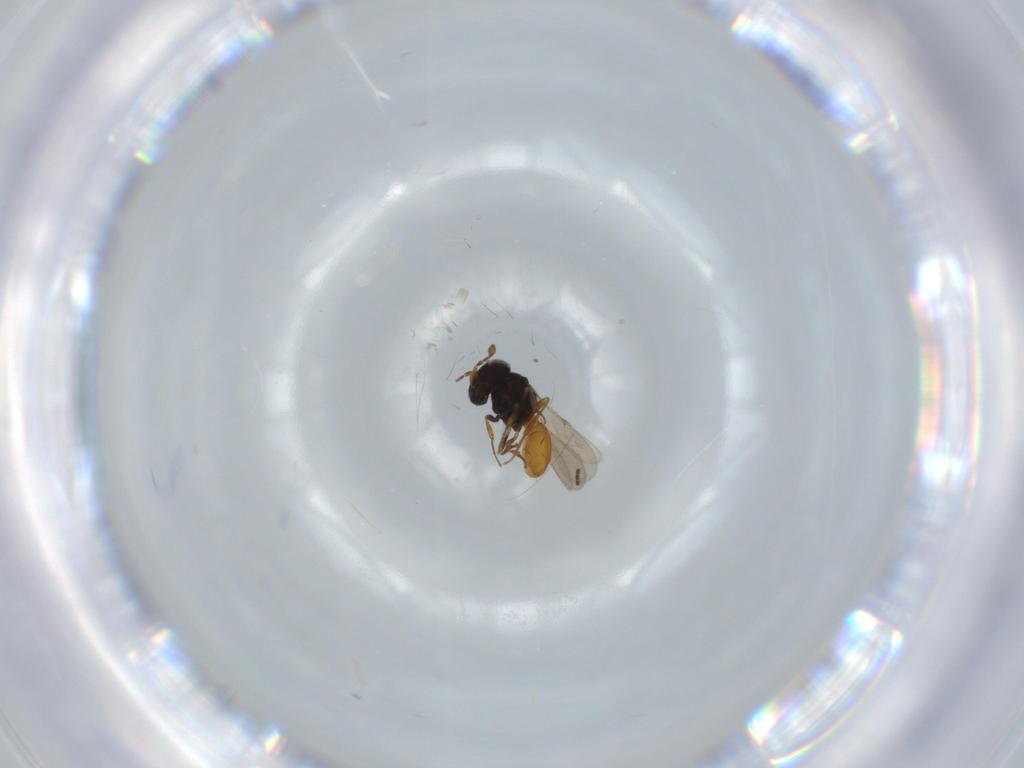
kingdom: Animalia
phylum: Arthropoda
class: Insecta
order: Hymenoptera
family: Scelionidae
